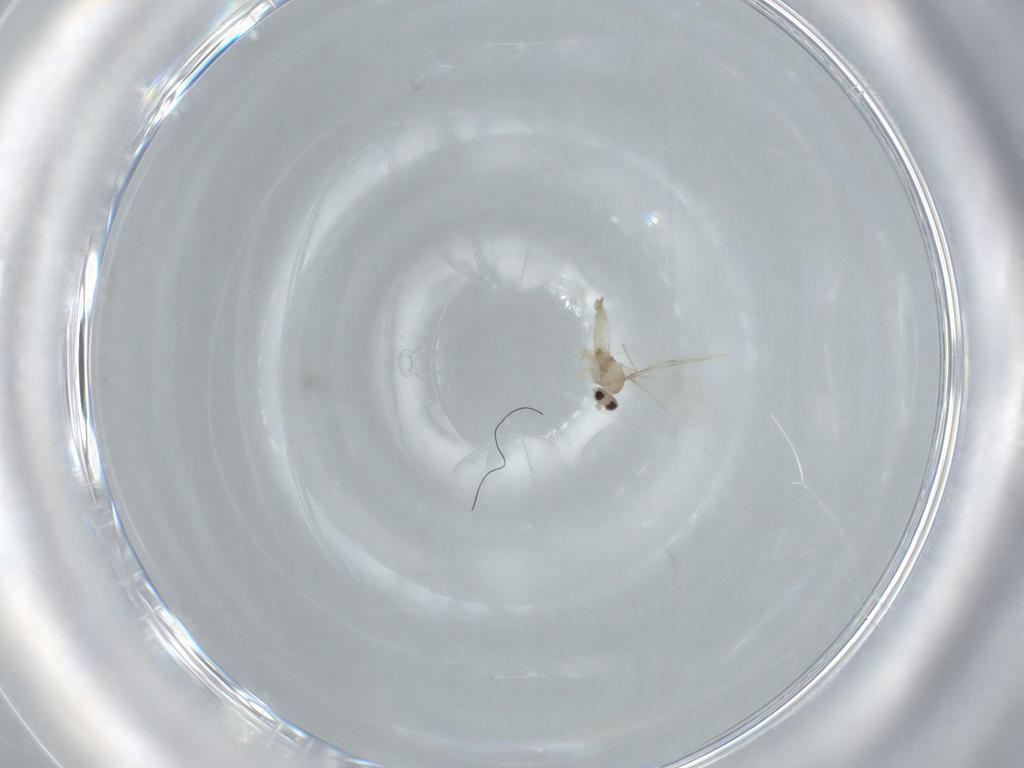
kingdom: Animalia
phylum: Arthropoda
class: Insecta
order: Diptera
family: Cecidomyiidae
